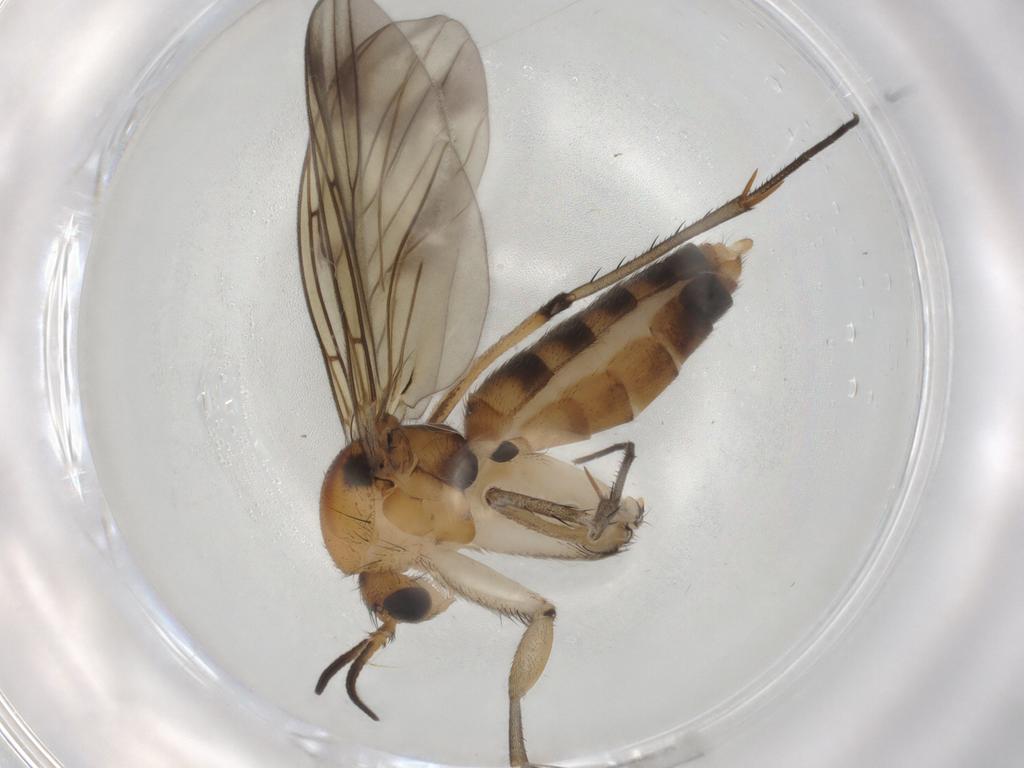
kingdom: Animalia
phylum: Arthropoda
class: Insecta
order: Diptera
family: Mycetophilidae
